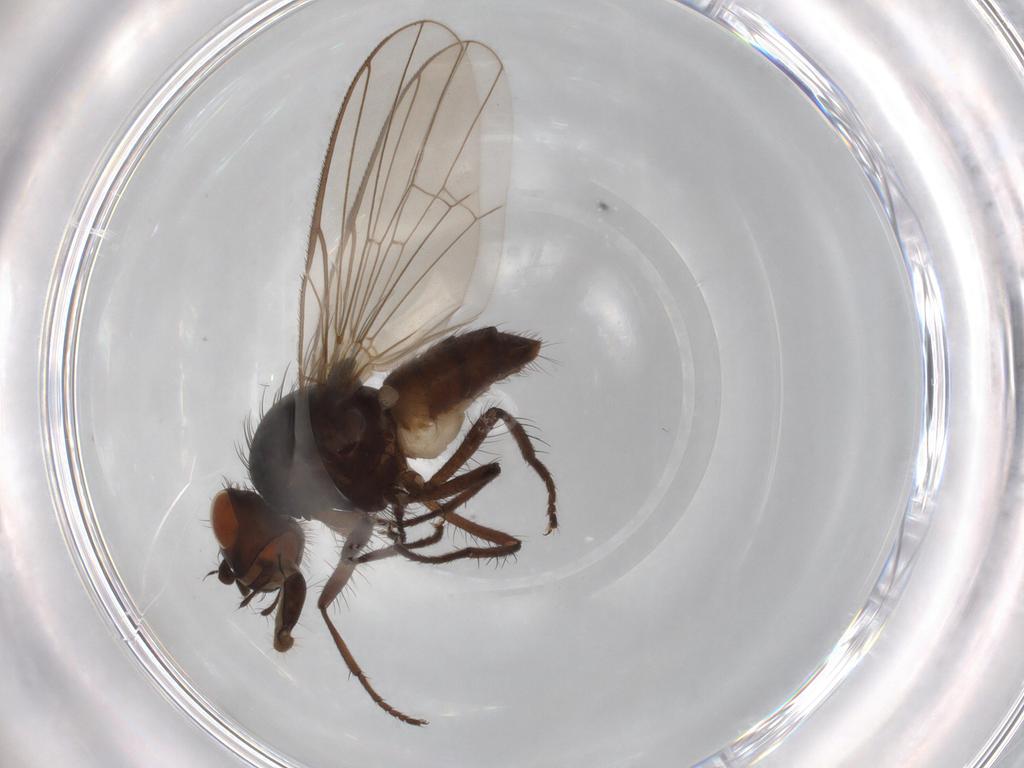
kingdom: Animalia
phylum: Arthropoda
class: Insecta
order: Diptera
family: Anthomyiidae
